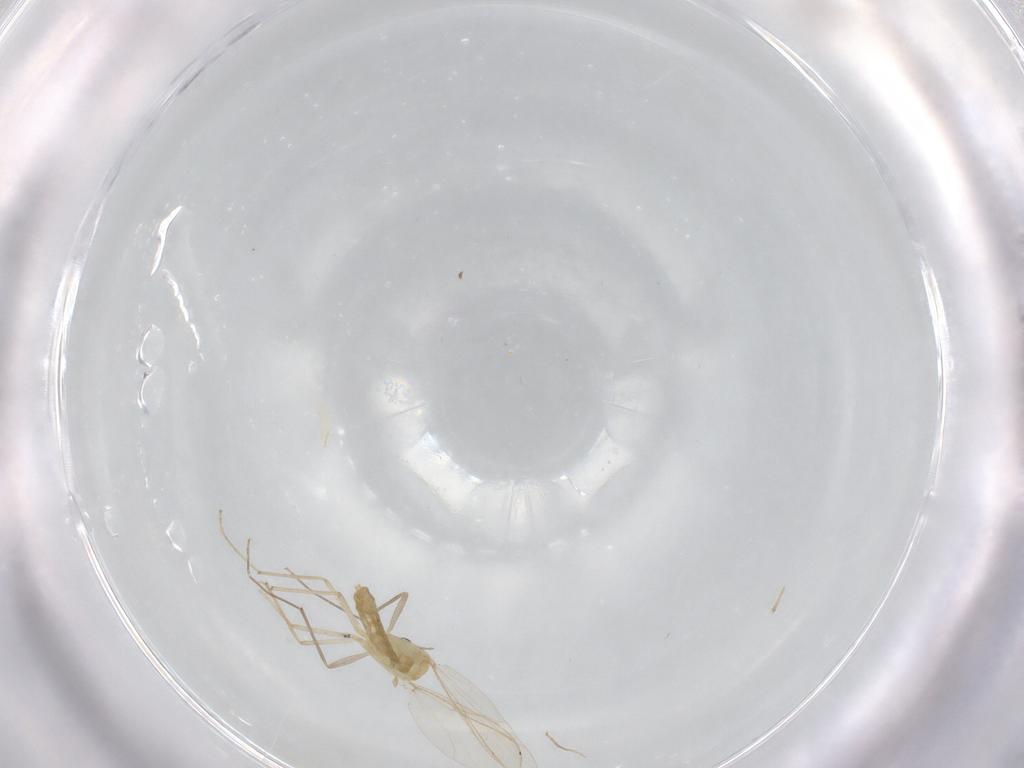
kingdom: Animalia
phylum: Arthropoda
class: Insecta
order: Diptera
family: Chironomidae
